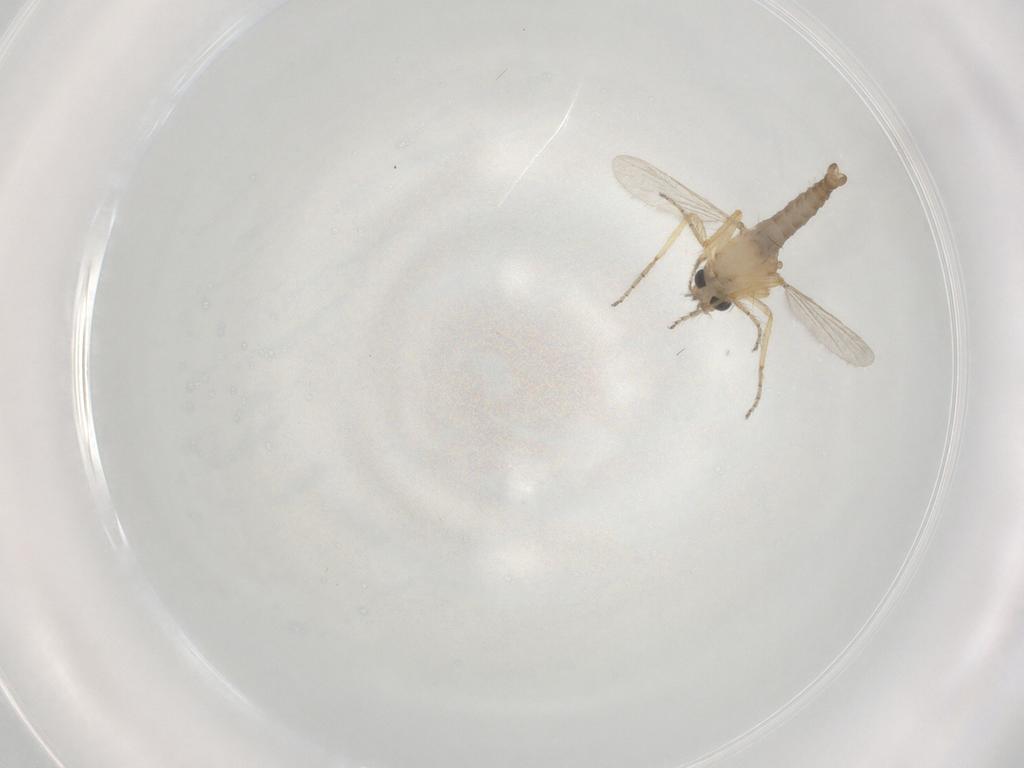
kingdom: Animalia
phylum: Arthropoda
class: Insecta
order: Diptera
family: Ceratopogonidae
